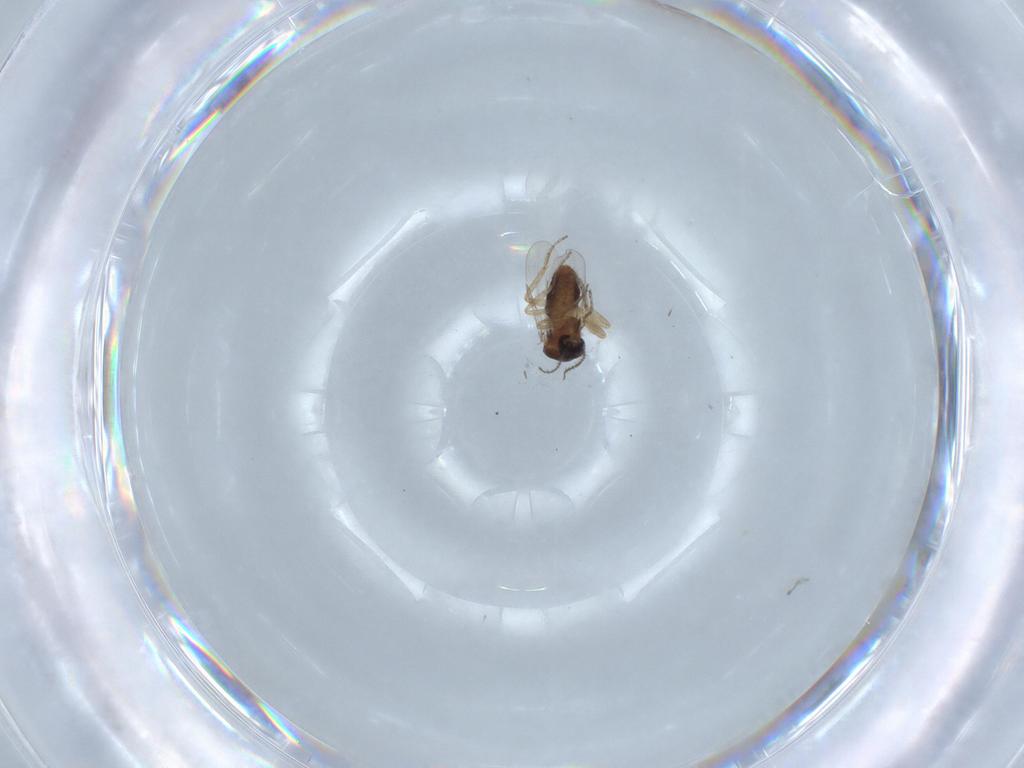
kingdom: Animalia
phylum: Arthropoda
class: Insecta
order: Diptera
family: Ceratopogonidae
